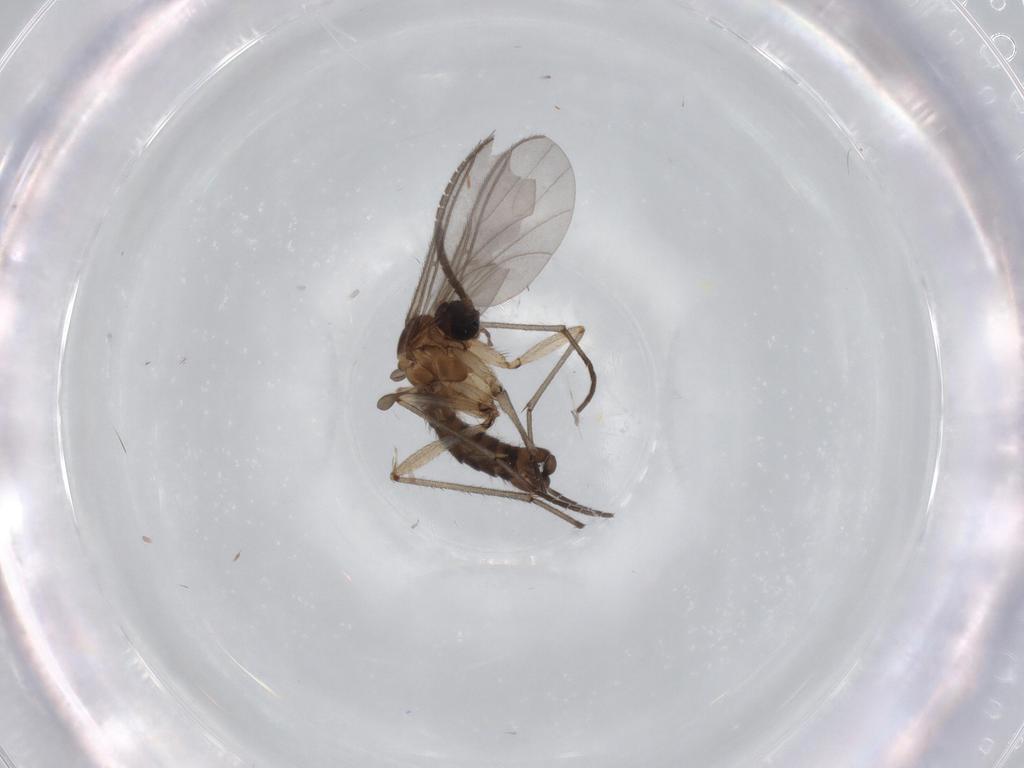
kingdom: Animalia
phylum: Arthropoda
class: Insecta
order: Diptera
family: Sciaridae
